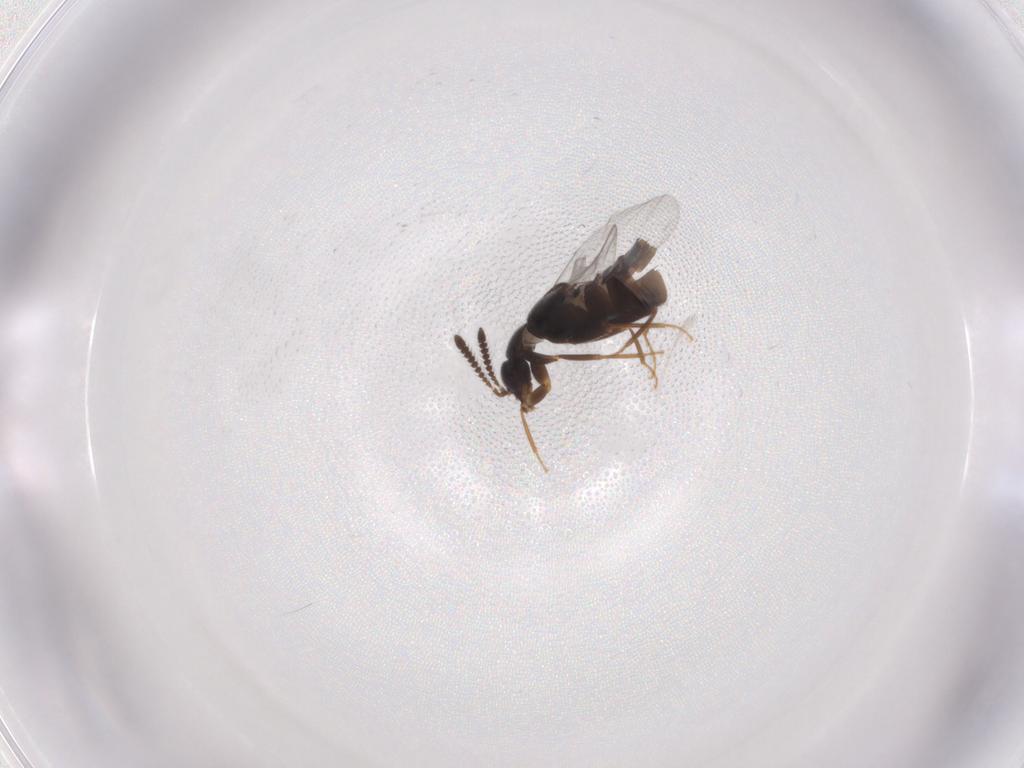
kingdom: Animalia
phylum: Arthropoda
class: Insecta
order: Coleoptera
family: Staphylinidae
